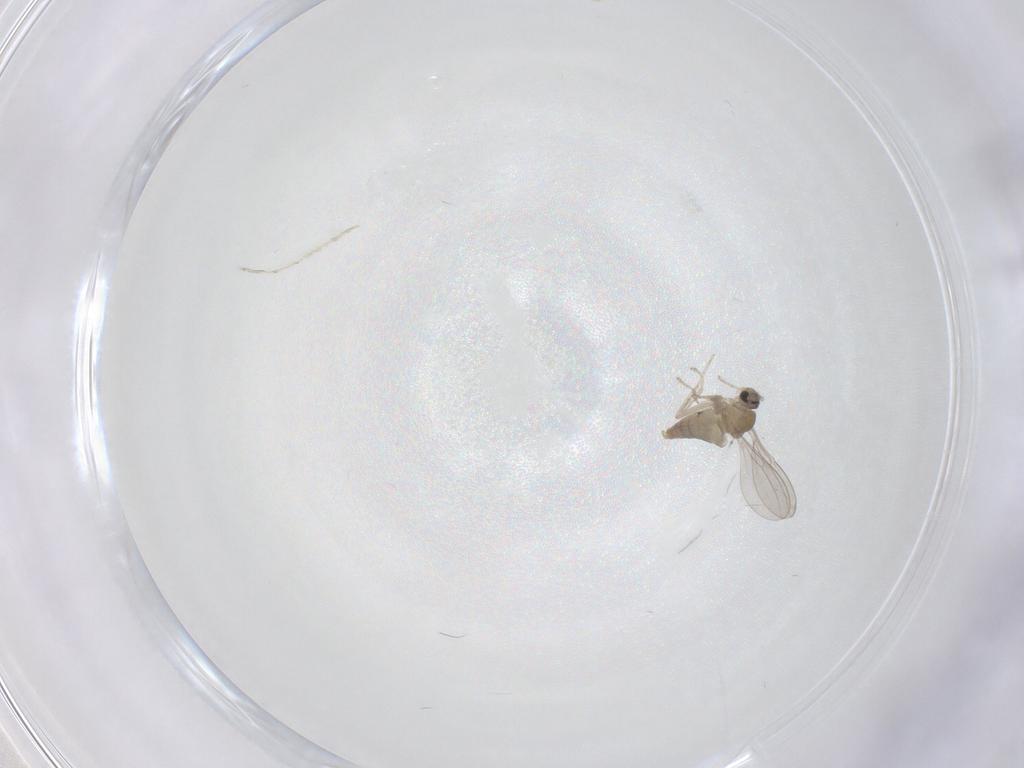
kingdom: Animalia
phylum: Arthropoda
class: Insecta
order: Diptera
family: Cecidomyiidae
